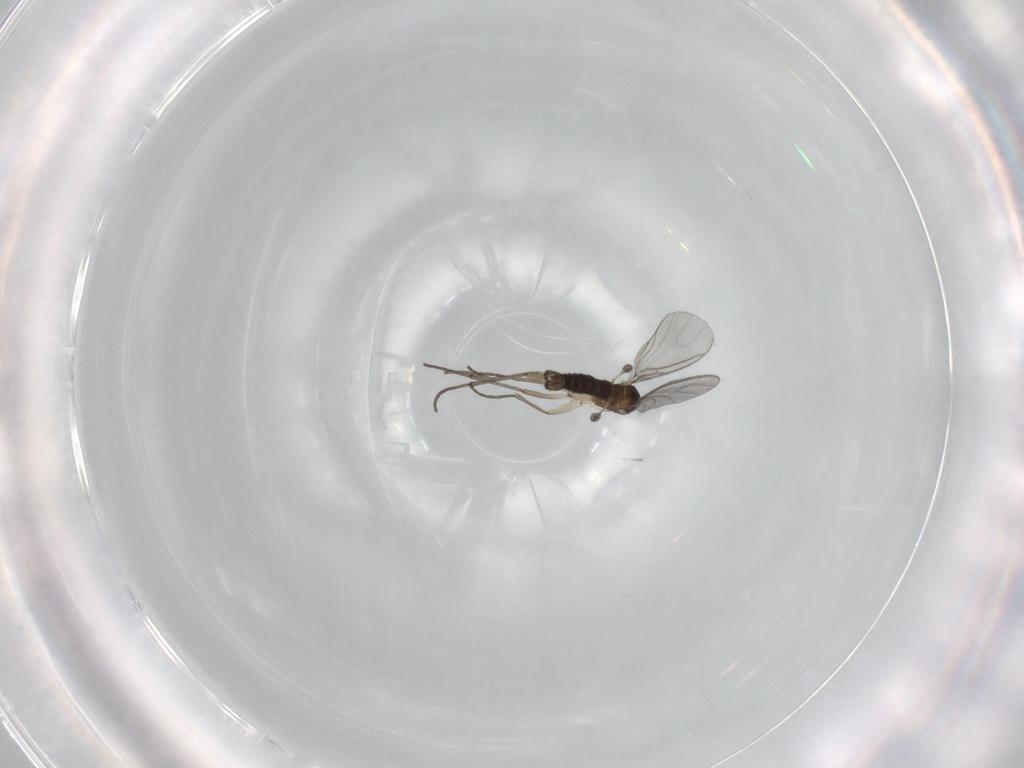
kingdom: Animalia
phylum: Arthropoda
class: Insecta
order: Diptera
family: Sciaridae
